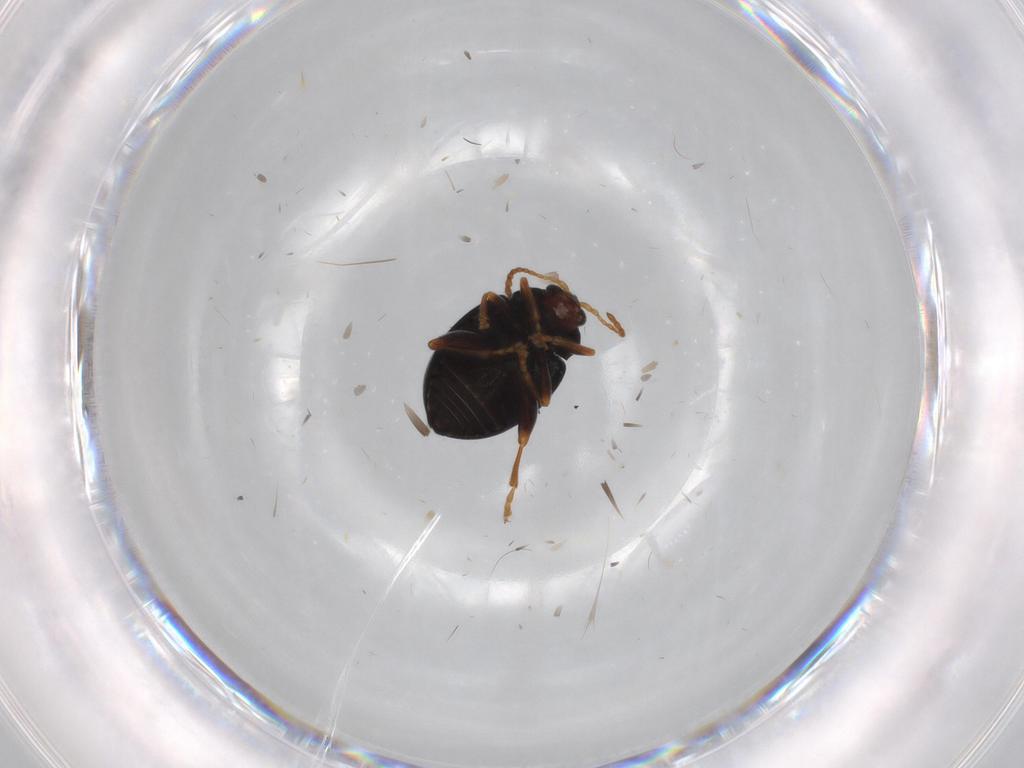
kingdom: Animalia
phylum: Arthropoda
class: Insecta
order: Coleoptera
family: Chrysomelidae
